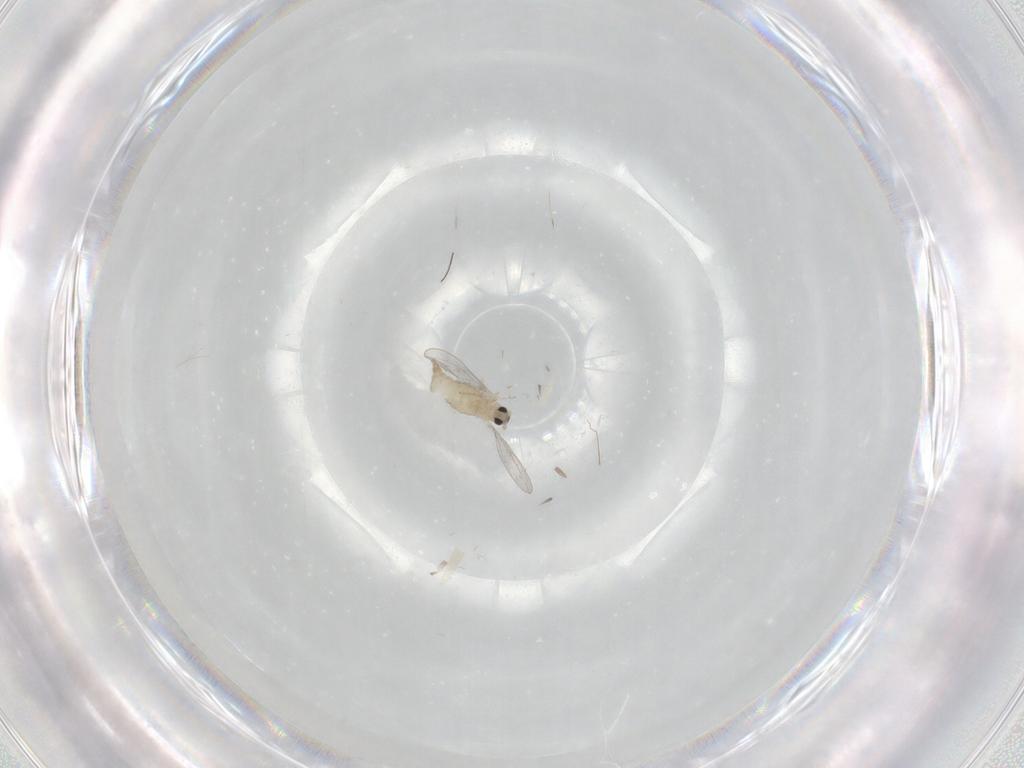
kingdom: Animalia
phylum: Arthropoda
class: Insecta
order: Diptera
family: Cecidomyiidae
